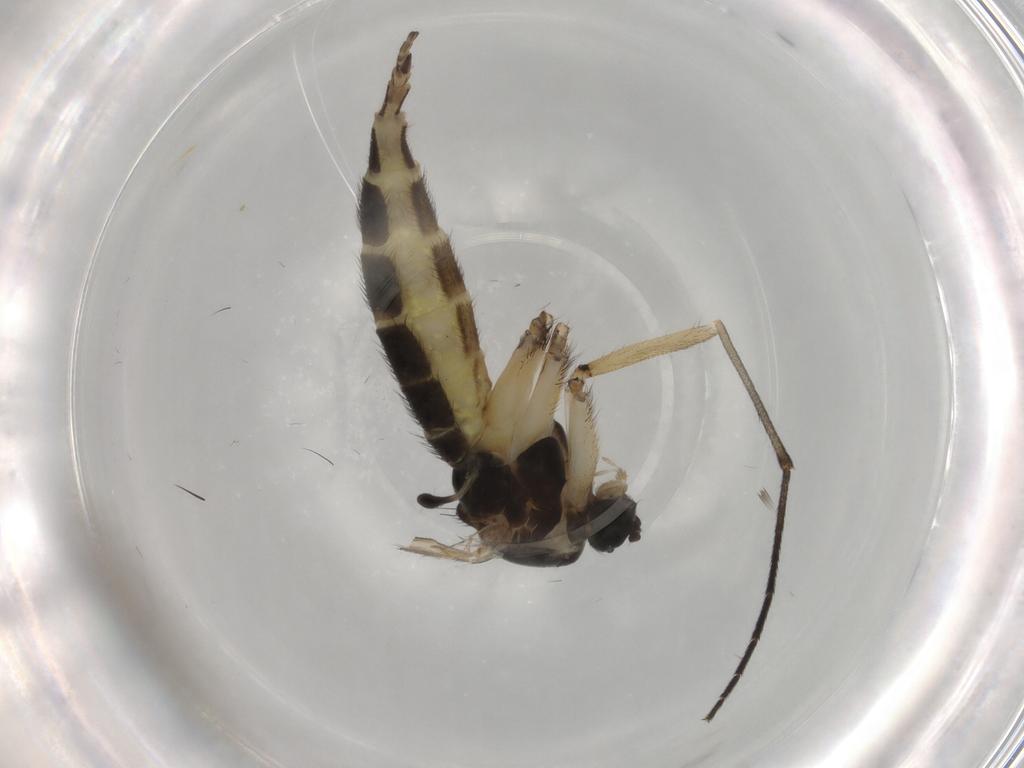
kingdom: Animalia
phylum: Arthropoda
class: Insecta
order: Diptera
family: Sciaridae
